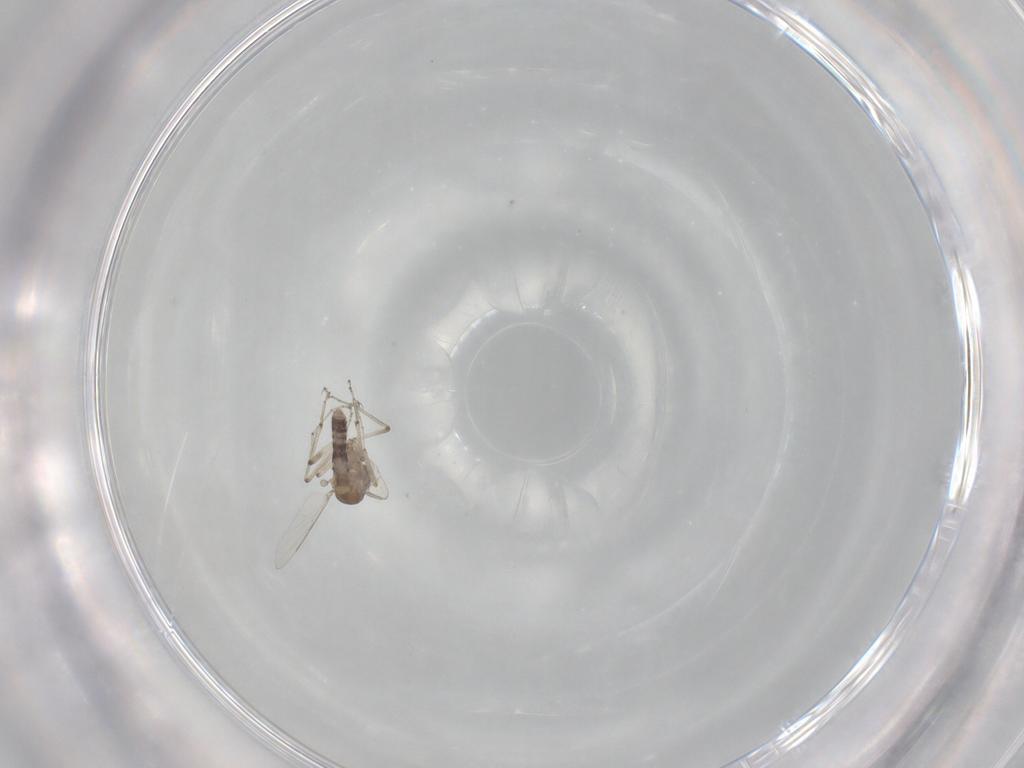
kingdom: Animalia
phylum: Arthropoda
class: Insecta
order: Diptera
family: Ceratopogonidae
